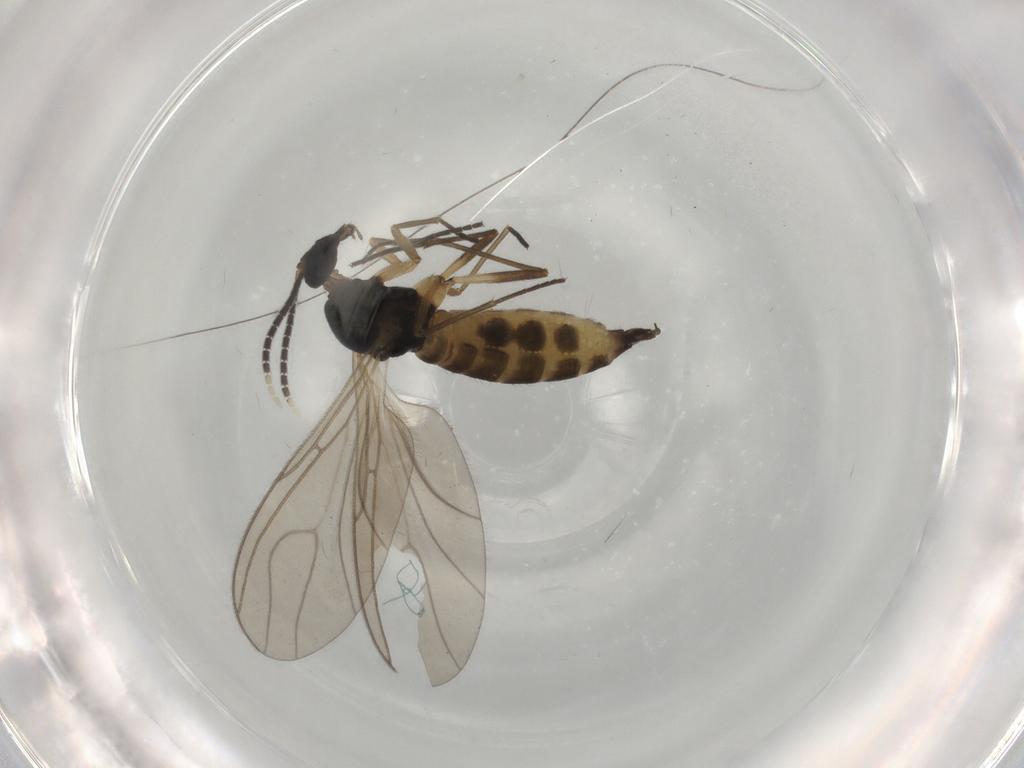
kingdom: Animalia
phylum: Arthropoda
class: Insecta
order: Diptera
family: Sciaridae
